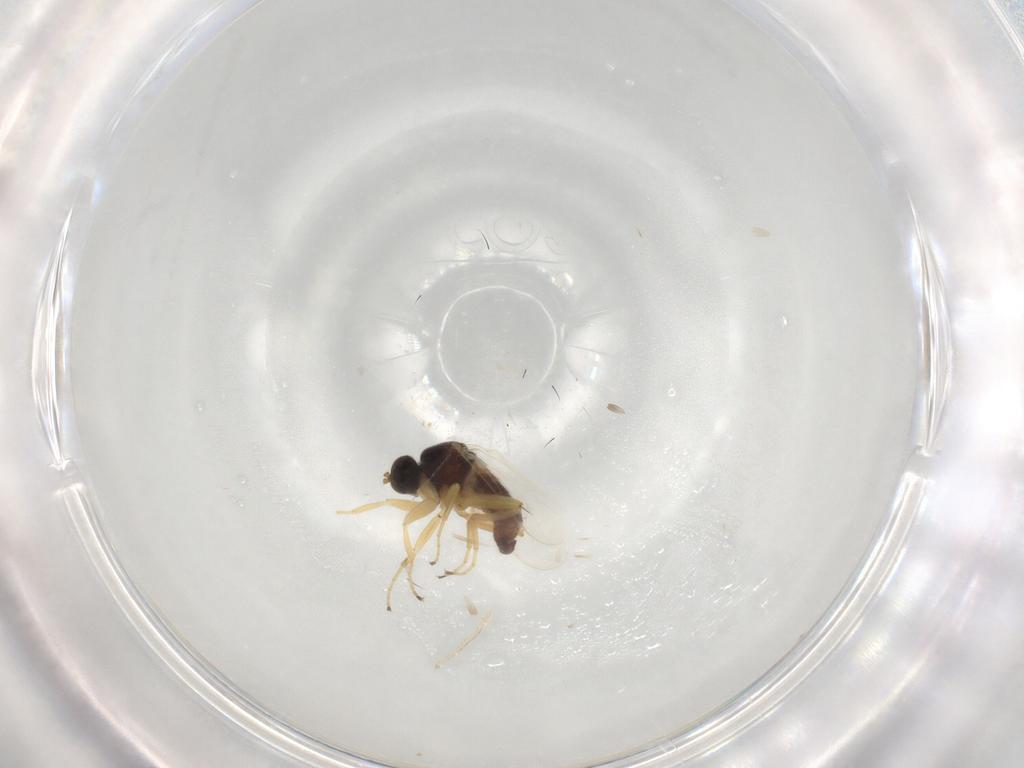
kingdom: Animalia
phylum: Arthropoda
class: Insecta
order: Diptera
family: Hybotidae
